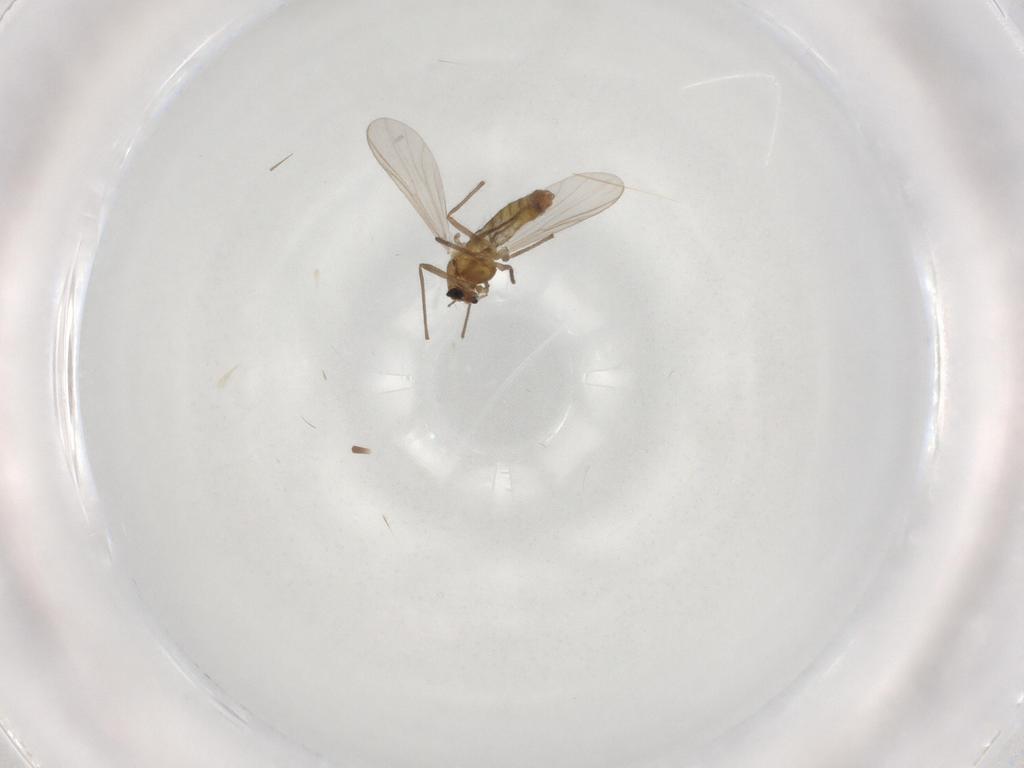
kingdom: Animalia
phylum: Arthropoda
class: Insecta
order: Diptera
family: Chironomidae
